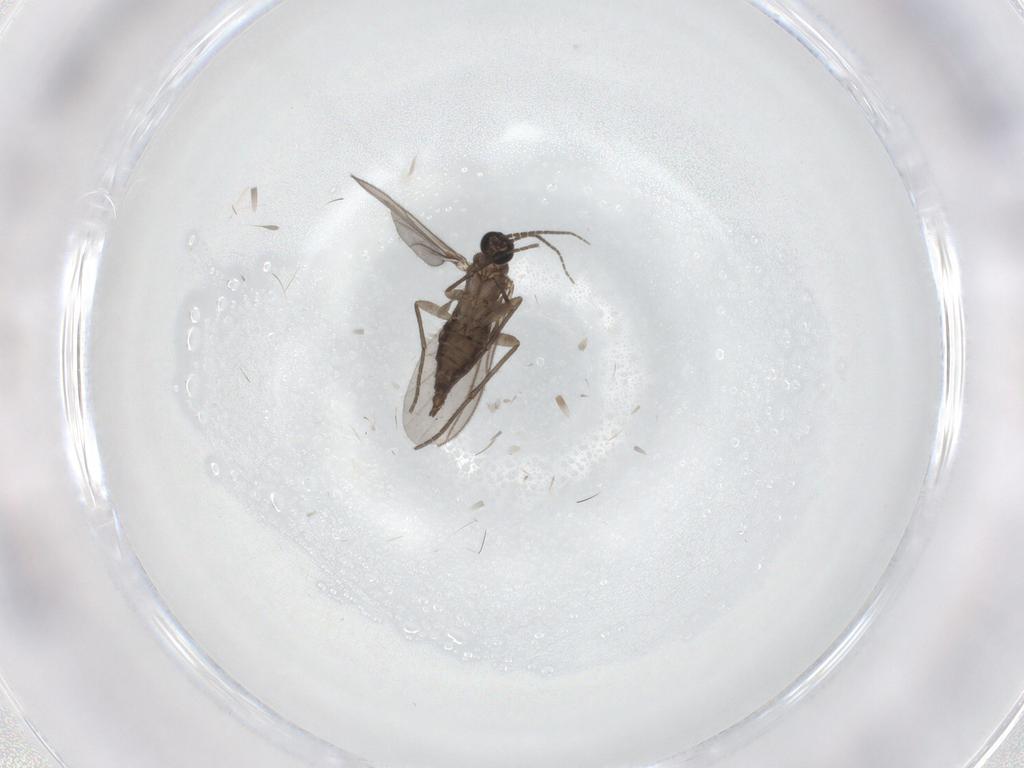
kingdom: Animalia
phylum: Arthropoda
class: Insecta
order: Diptera
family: Sciaridae
